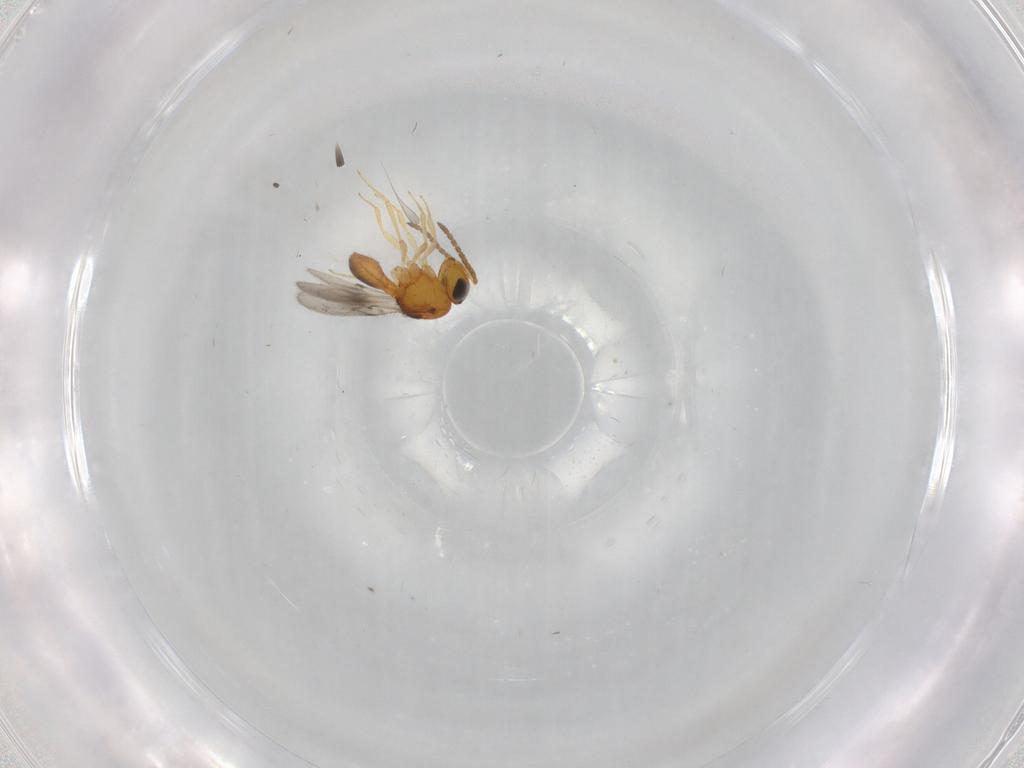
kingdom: Animalia
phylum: Arthropoda
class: Insecta
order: Hymenoptera
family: Scelionidae
